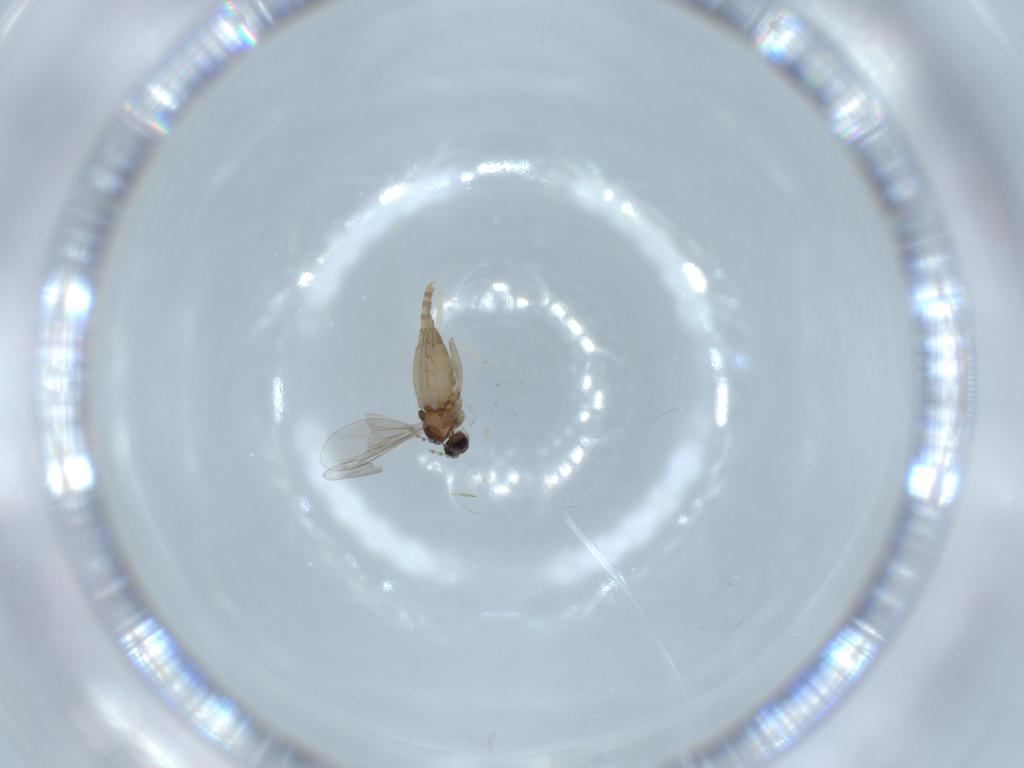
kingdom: Animalia
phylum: Arthropoda
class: Insecta
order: Diptera
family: Cecidomyiidae
